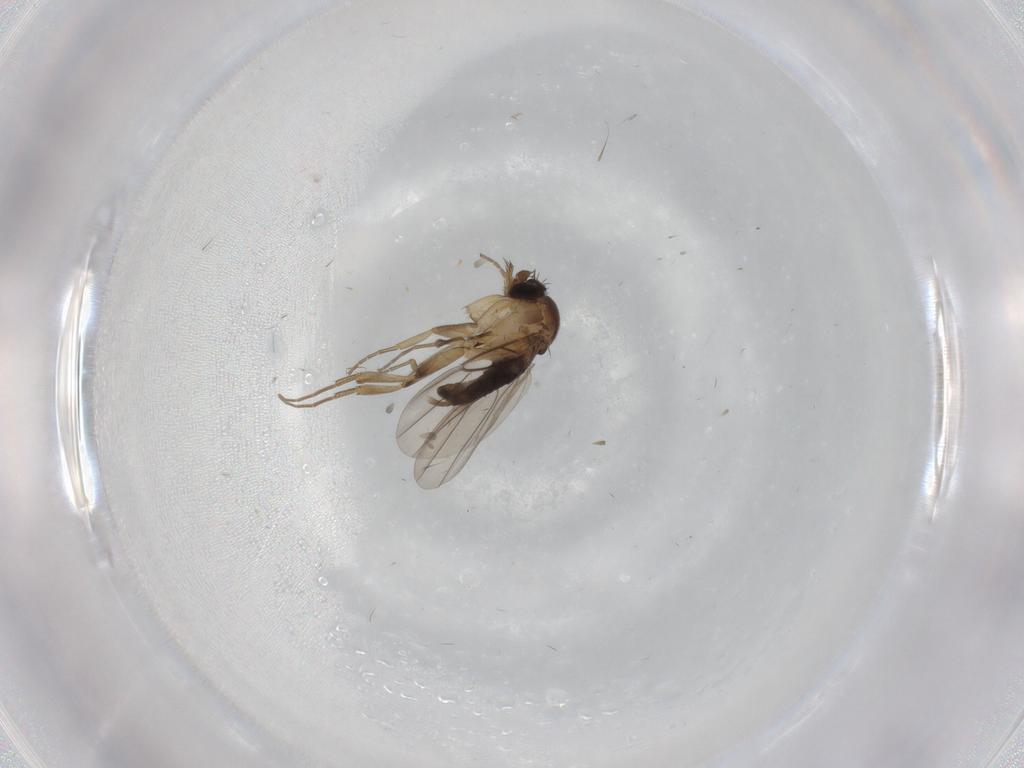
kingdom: Animalia
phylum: Arthropoda
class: Insecta
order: Diptera
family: Phoridae
